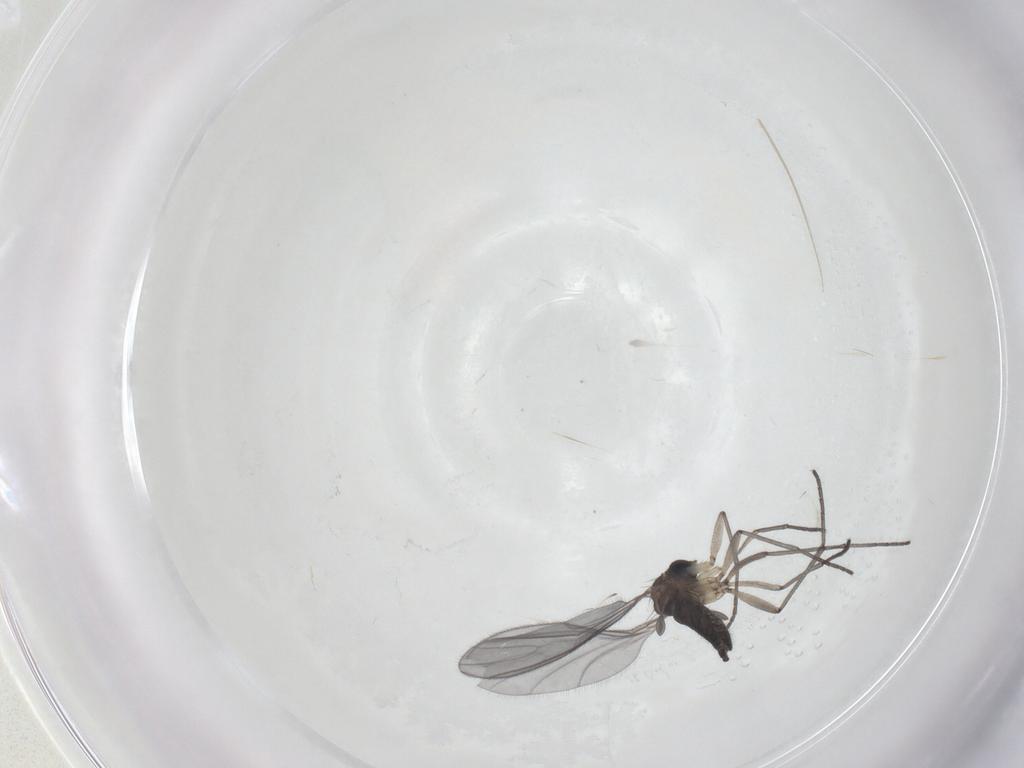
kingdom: Animalia
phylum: Arthropoda
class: Insecta
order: Diptera
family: Sciaridae
